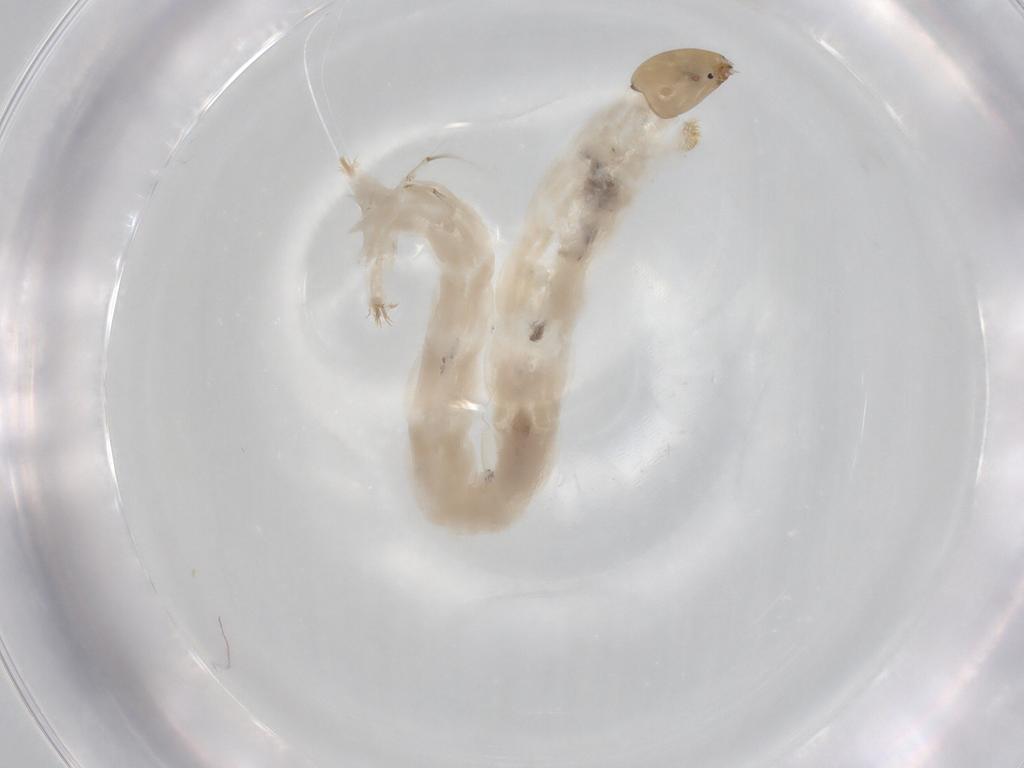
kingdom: Animalia
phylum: Arthropoda
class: Insecta
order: Diptera
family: Chironomidae
